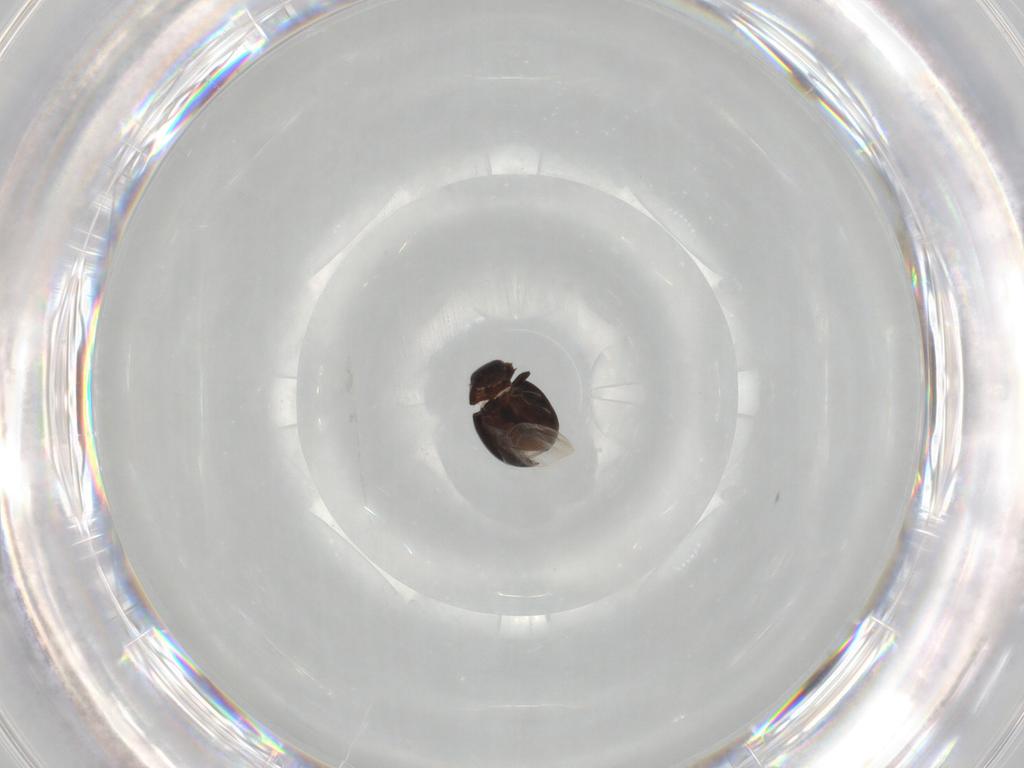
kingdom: Animalia
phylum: Arthropoda
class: Insecta
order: Coleoptera
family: Coccinellidae
